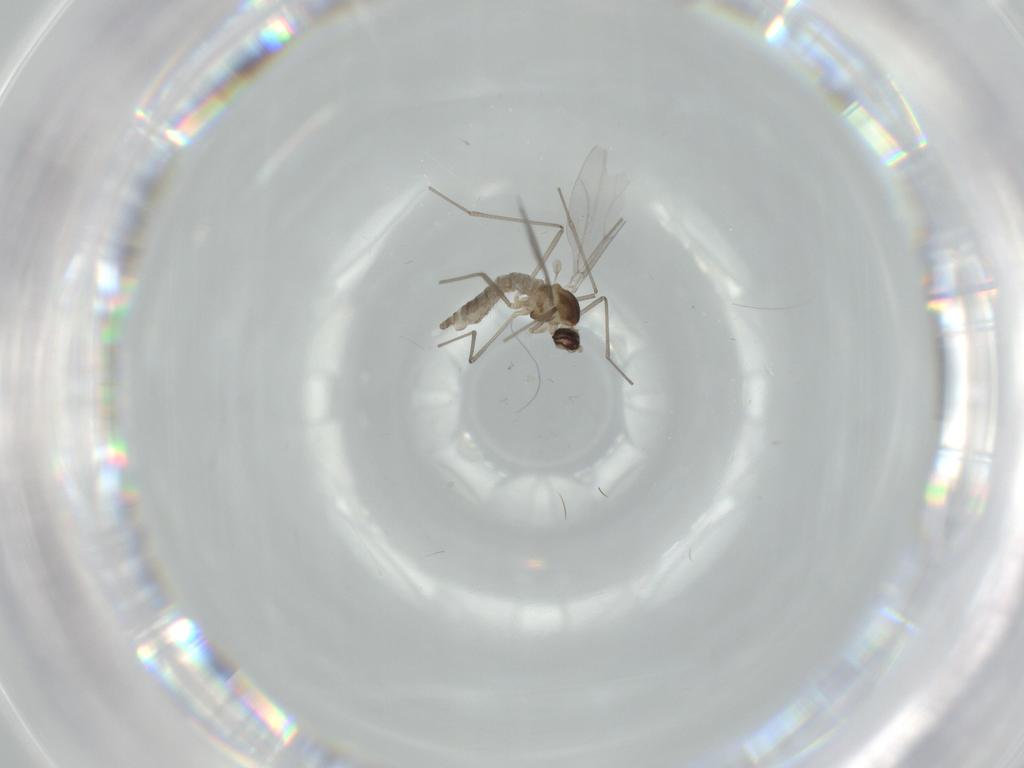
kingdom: Animalia
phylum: Arthropoda
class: Insecta
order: Diptera
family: Cecidomyiidae
